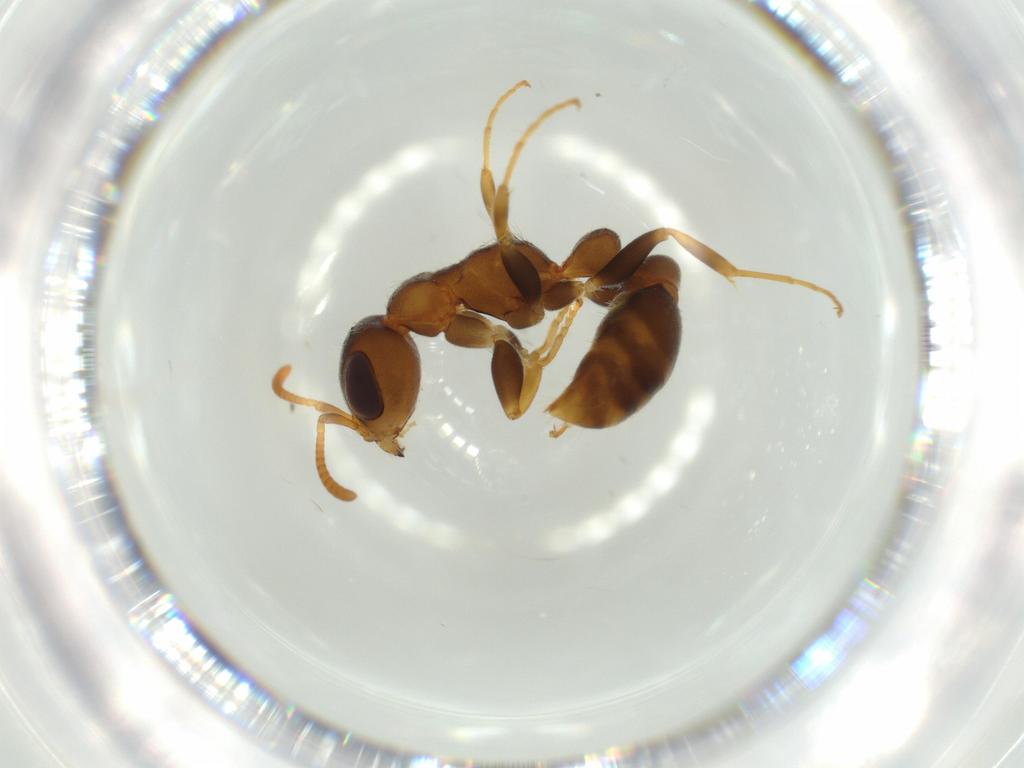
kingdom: Animalia
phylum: Arthropoda
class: Insecta
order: Hymenoptera
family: Formicidae
